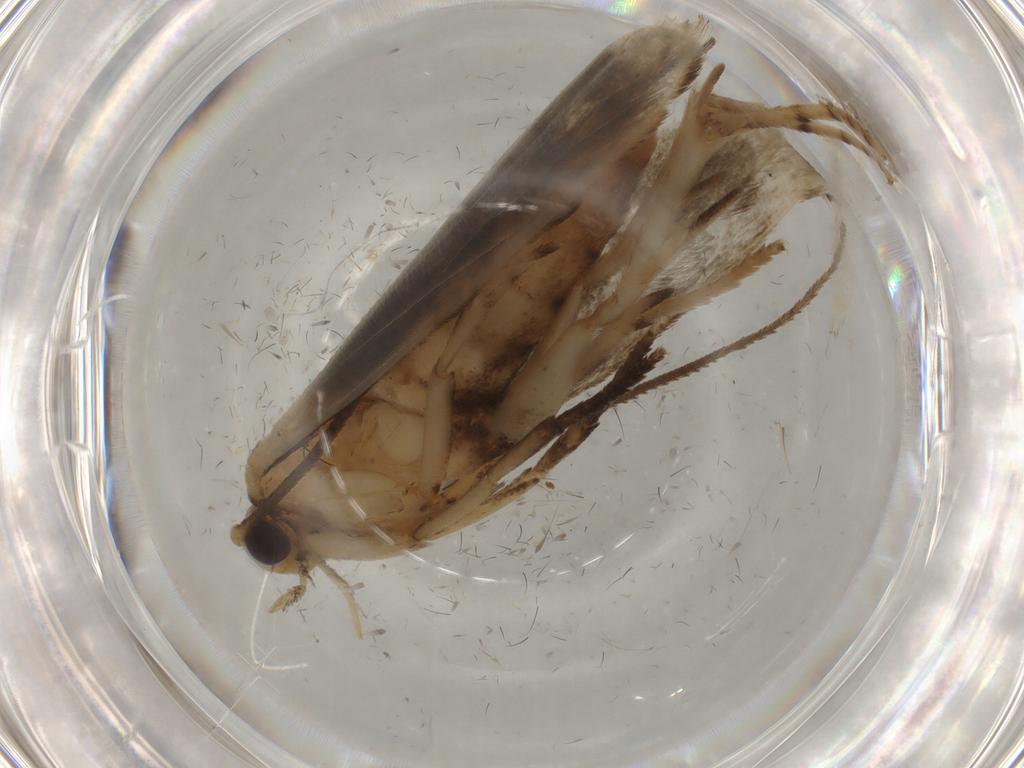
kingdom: Animalia
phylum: Arthropoda
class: Insecta
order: Lepidoptera
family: Yponomeutidae
